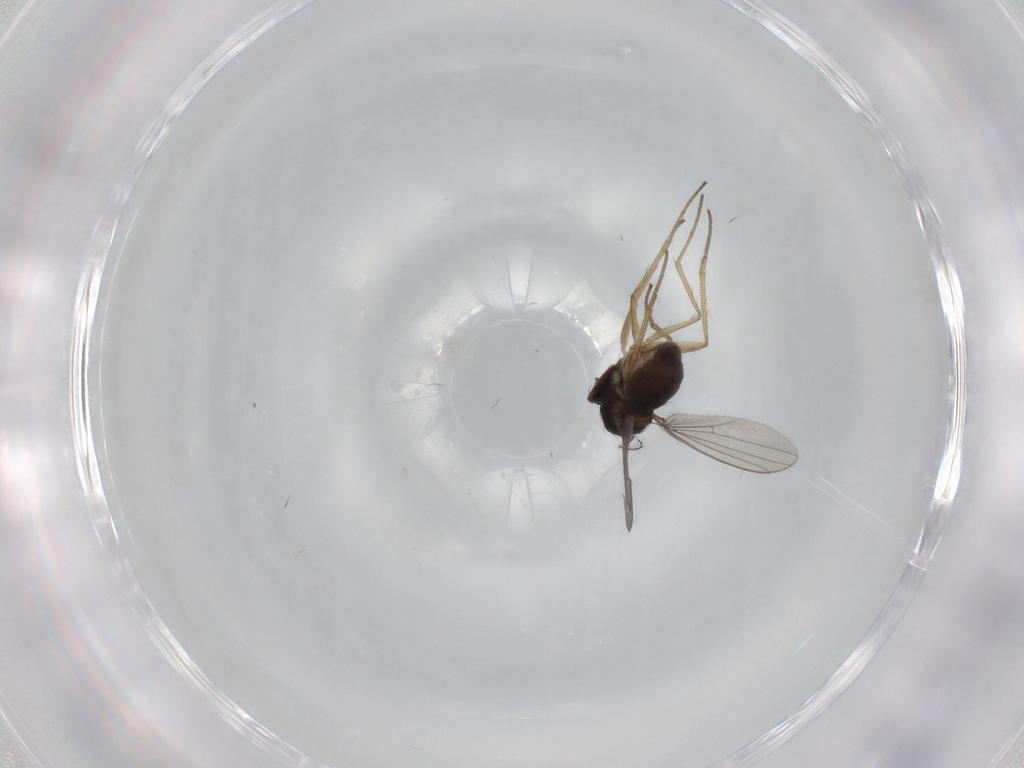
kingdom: Animalia
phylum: Arthropoda
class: Insecta
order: Diptera
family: Dolichopodidae
